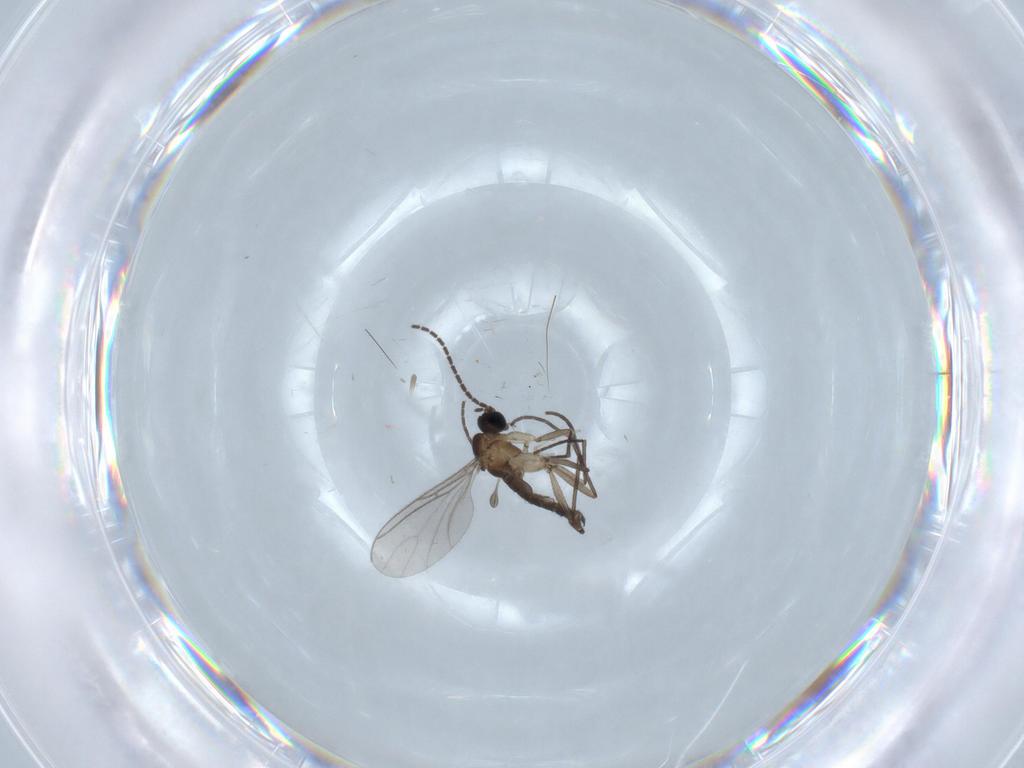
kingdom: Animalia
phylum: Arthropoda
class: Insecta
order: Diptera
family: Sciaridae
